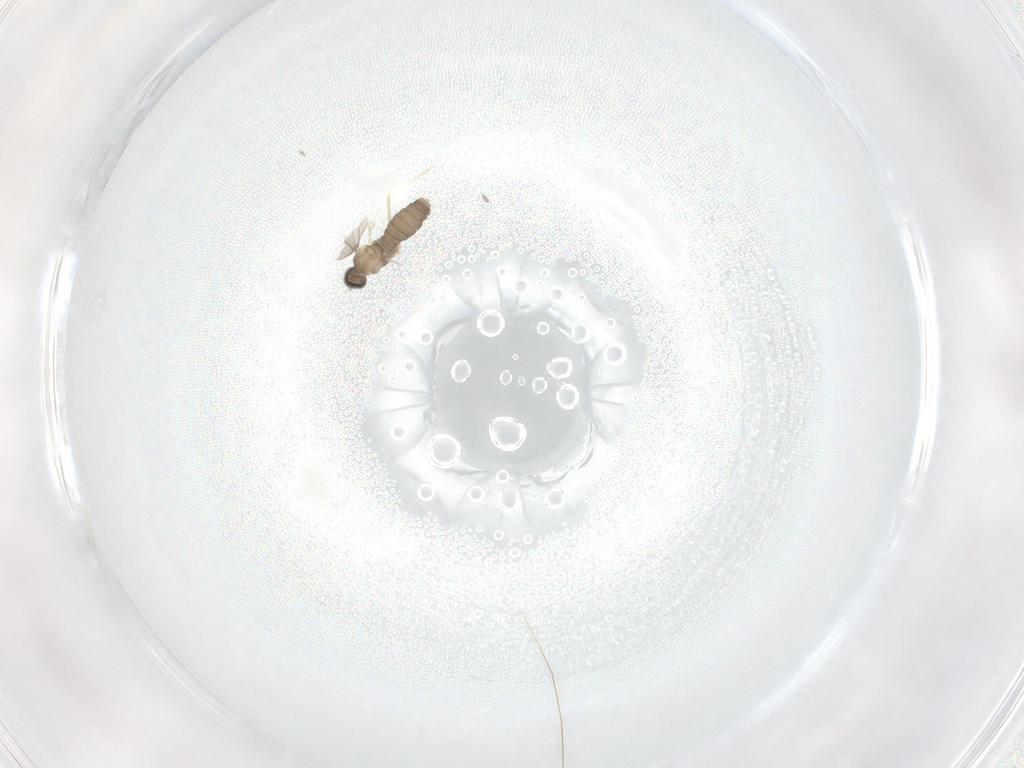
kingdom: Animalia
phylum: Arthropoda
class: Insecta
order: Diptera
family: Cecidomyiidae
